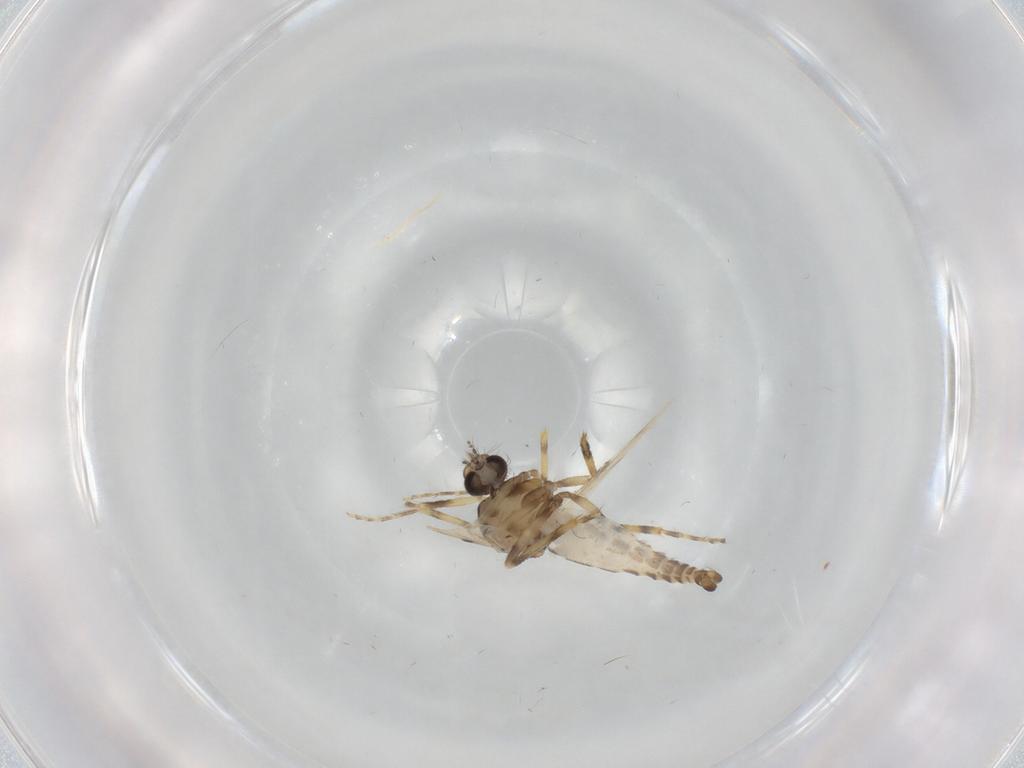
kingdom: Animalia
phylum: Arthropoda
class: Insecta
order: Diptera
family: Ceratopogonidae
